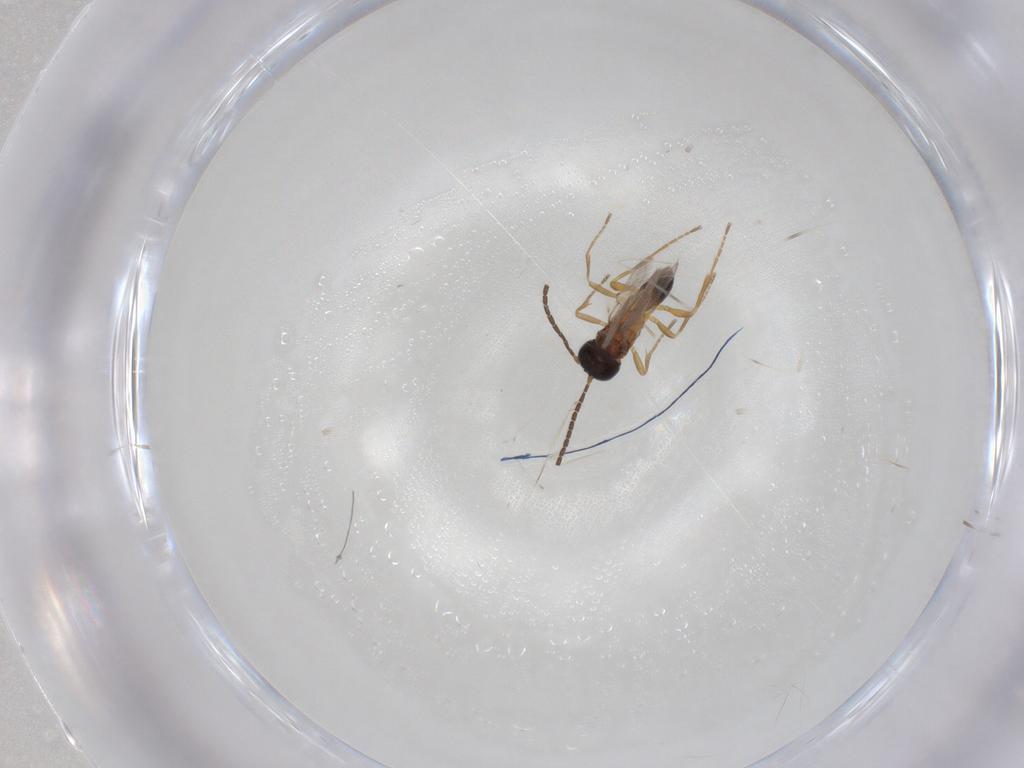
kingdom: Animalia
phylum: Arthropoda
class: Insecta
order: Hymenoptera
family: Braconidae
